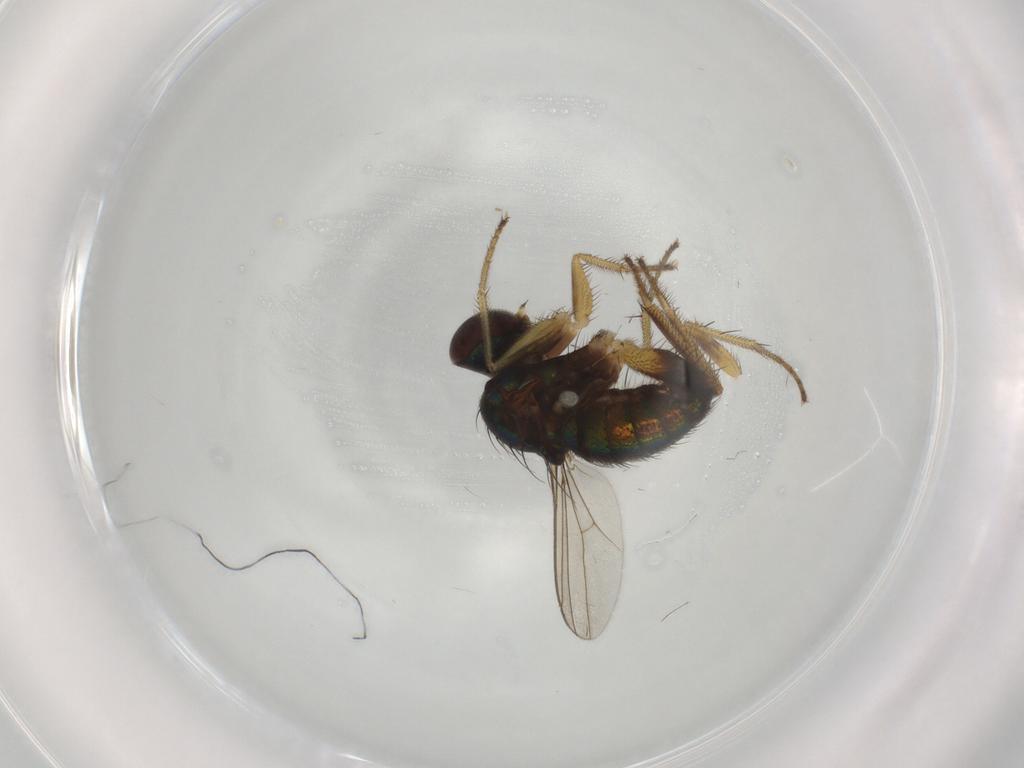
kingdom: Animalia
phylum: Arthropoda
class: Insecta
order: Diptera
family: Dolichopodidae
